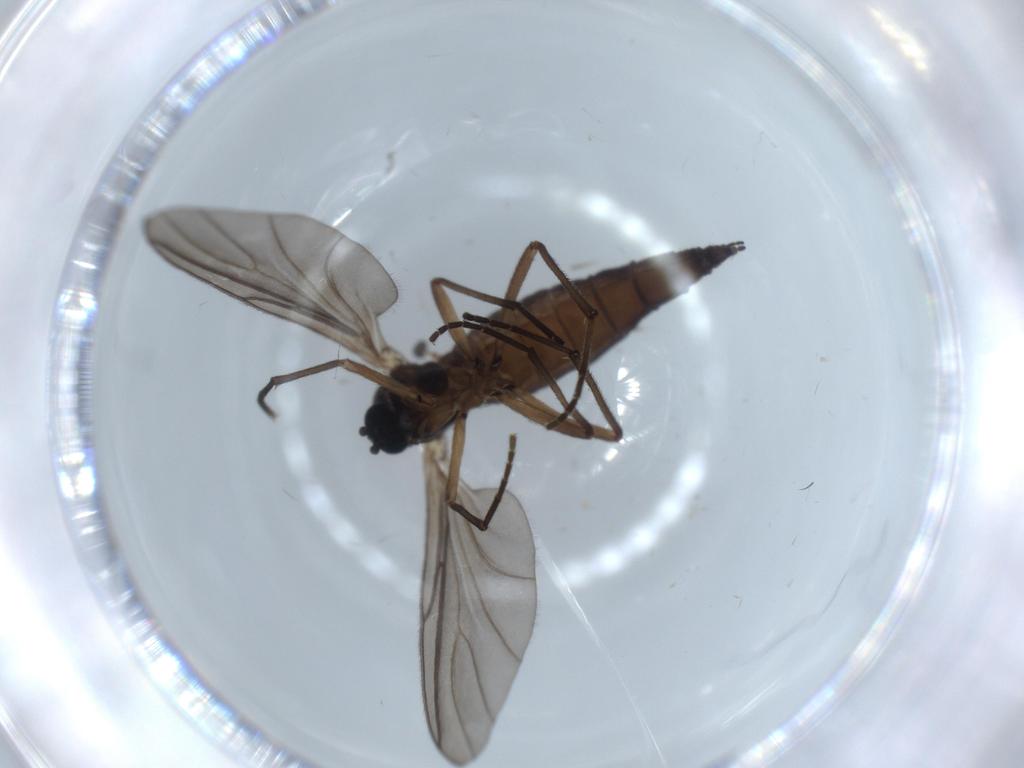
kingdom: Animalia
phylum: Arthropoda
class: Insecta
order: Diptera
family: Sciaridae
